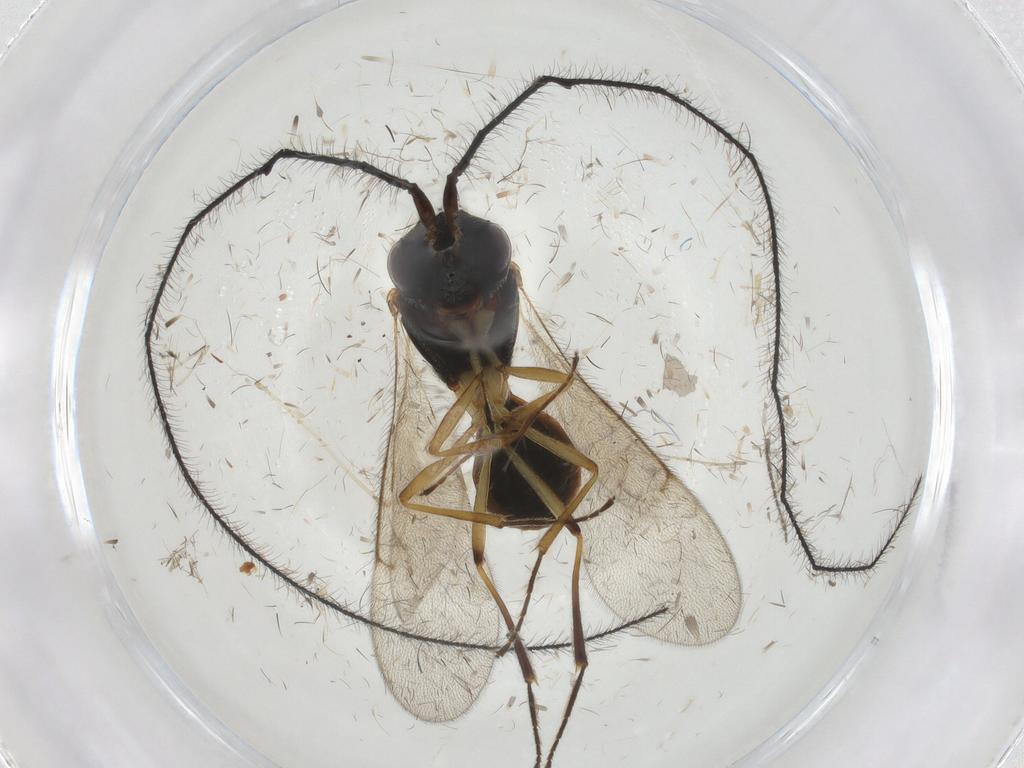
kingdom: Animalia
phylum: Arthropoda
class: Insecta
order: Hymenoptera
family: Scelionidae
